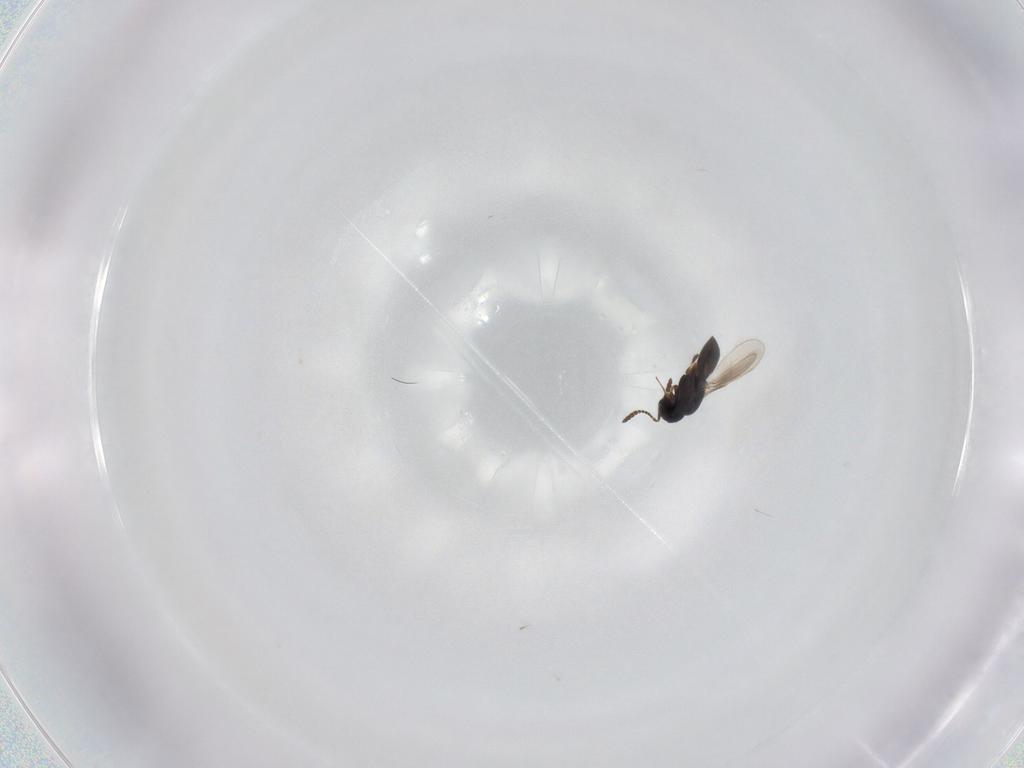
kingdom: Animalia
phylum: Arthropoda
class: Insecta
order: Hymenoptera
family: Scelionidae
